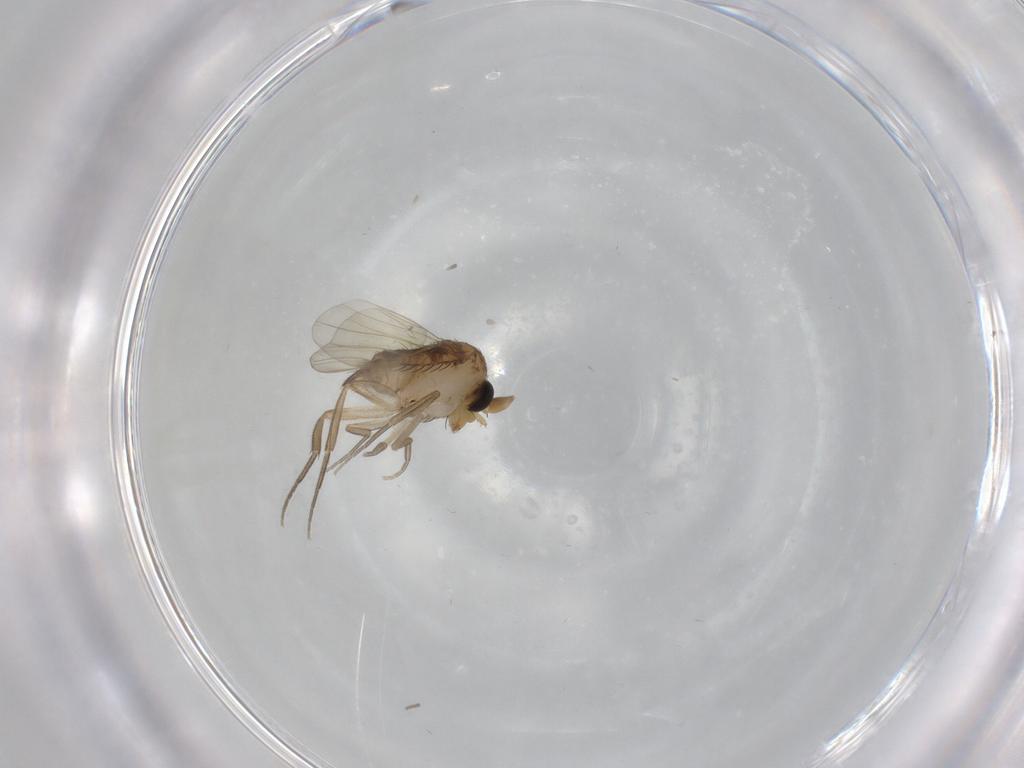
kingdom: Animalia
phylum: Arthropoda
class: Insecta
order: Diptera
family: Phoridae
